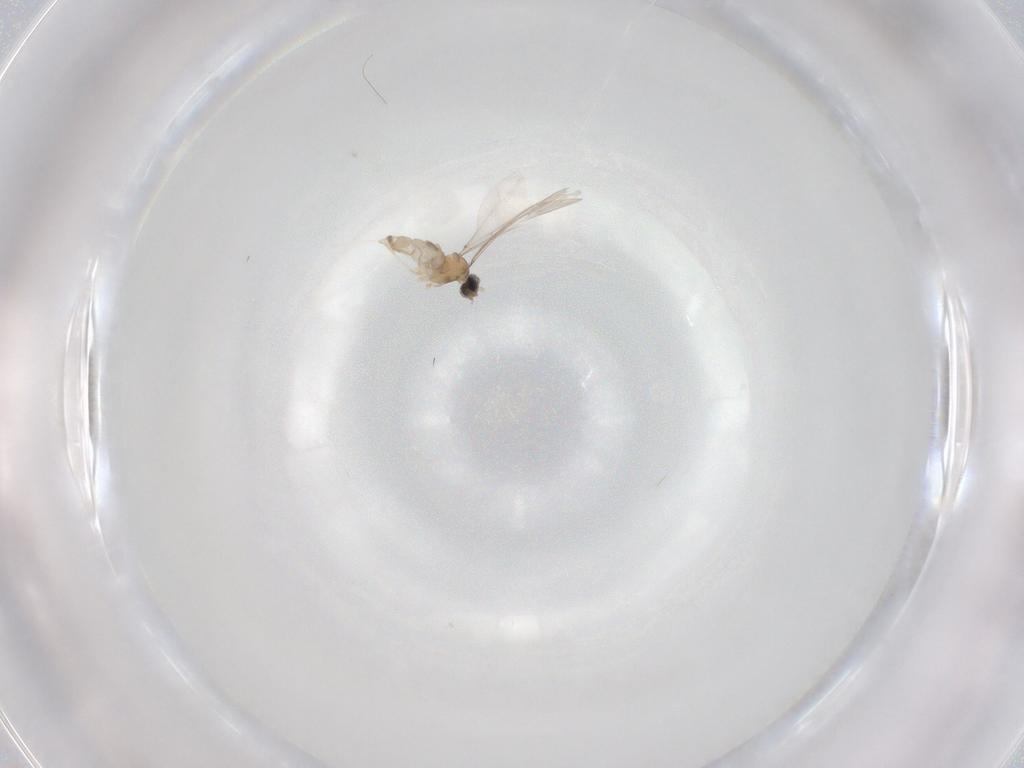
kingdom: Animalia
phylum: Arthropoda
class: Insecta
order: Diptera
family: Cecidomyiidae
